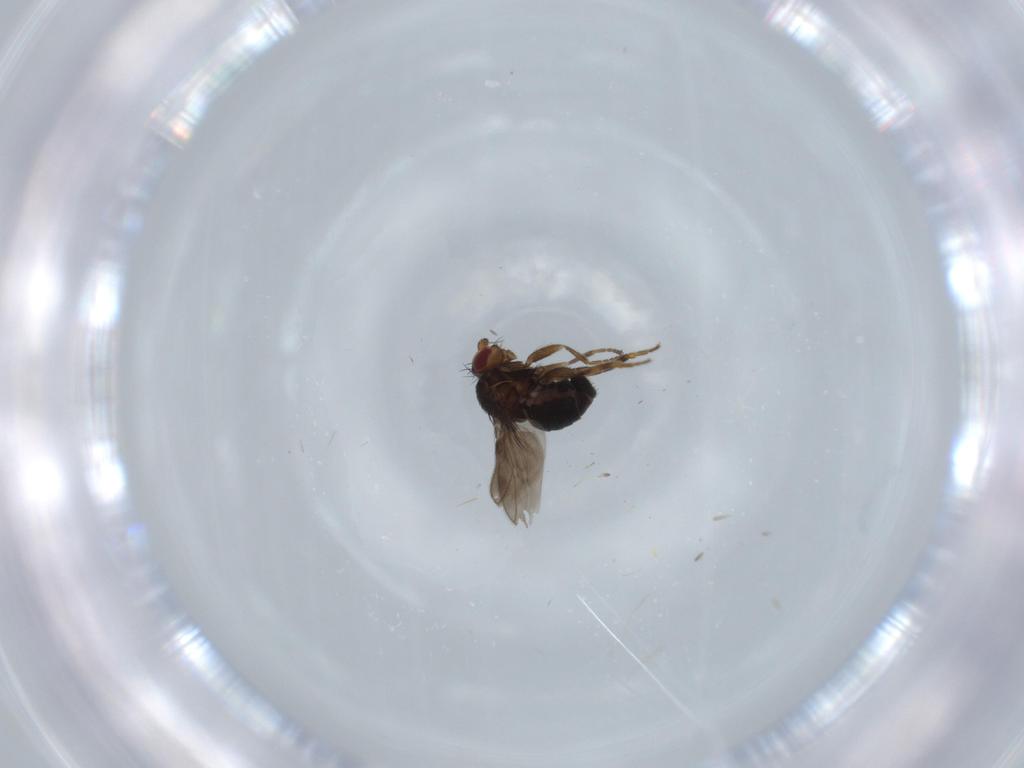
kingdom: Animalia
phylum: Arthropoda
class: Insecta
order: Diptera
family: Sphaeroceridae
